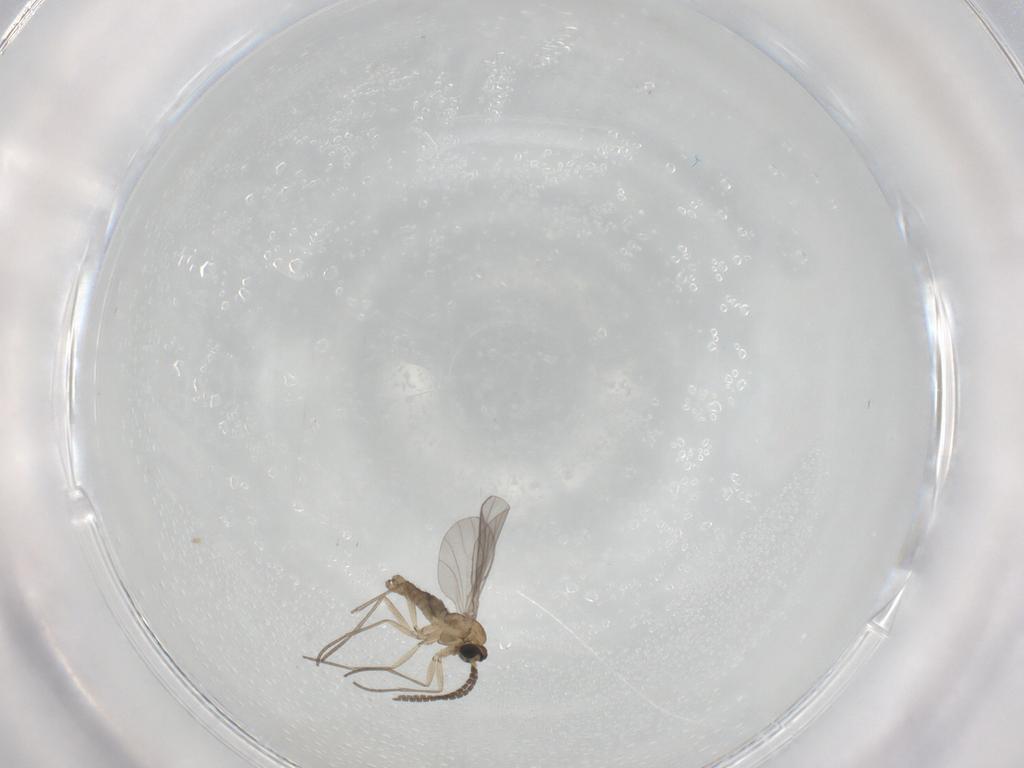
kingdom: Animalia
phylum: Arthropoda
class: Insecta
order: Diptera
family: Sciaridae
